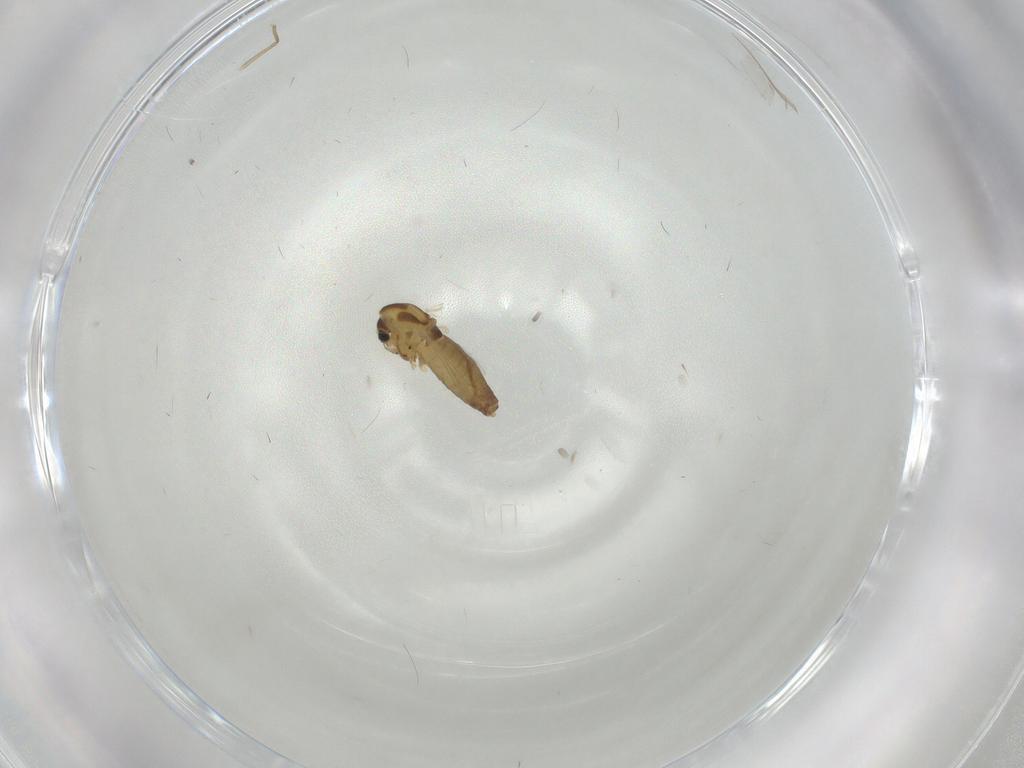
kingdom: Animalia
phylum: Arthropoda
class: Insecta
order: Diptera
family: Chironomidae
